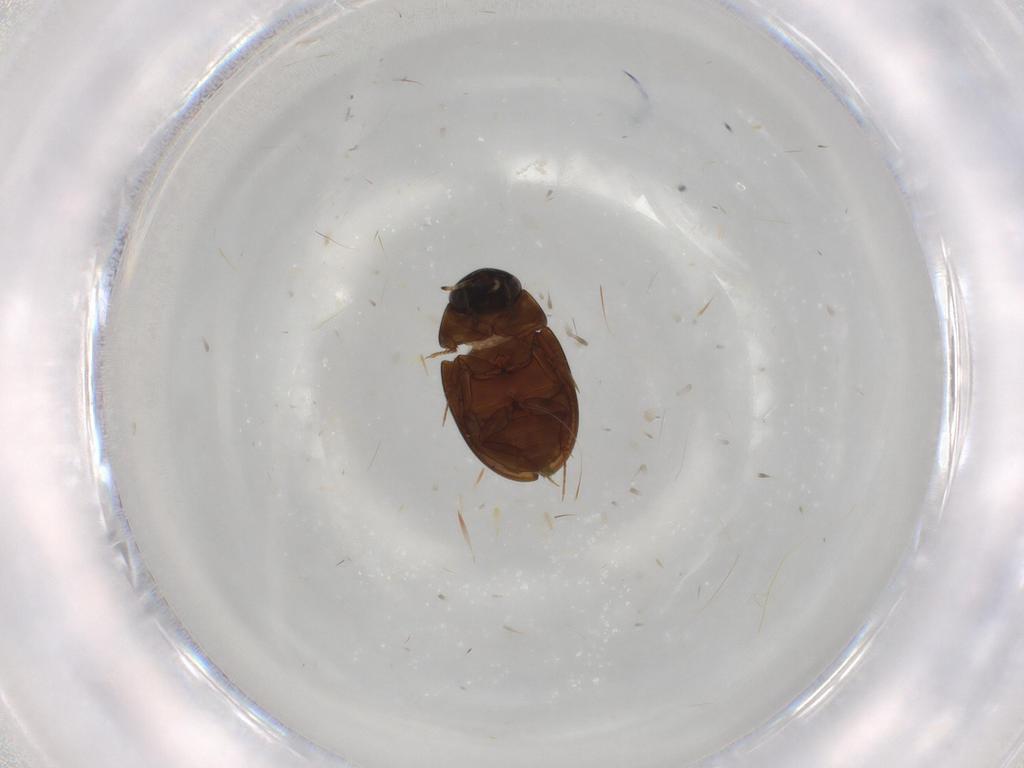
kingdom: Animalia
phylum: Arthropoda
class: Insecta
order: Coleoptera
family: Hydrophilidae
